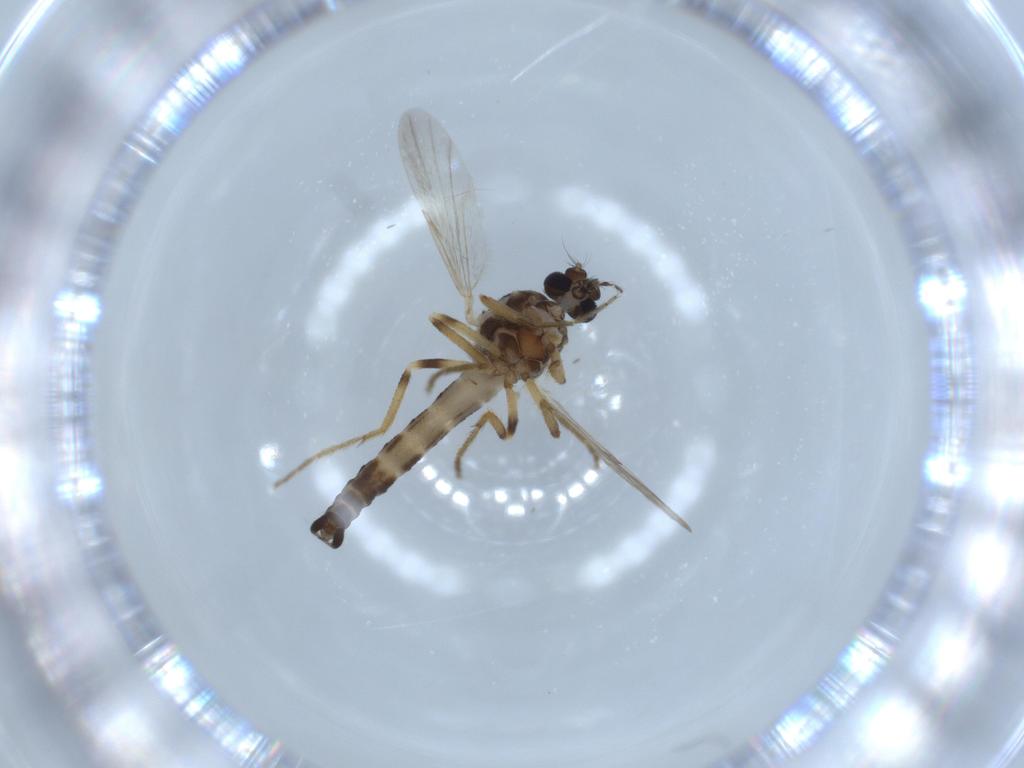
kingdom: Animalia
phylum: Arthropoda
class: Insecta
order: Diptera
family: Ceratopogonidae
